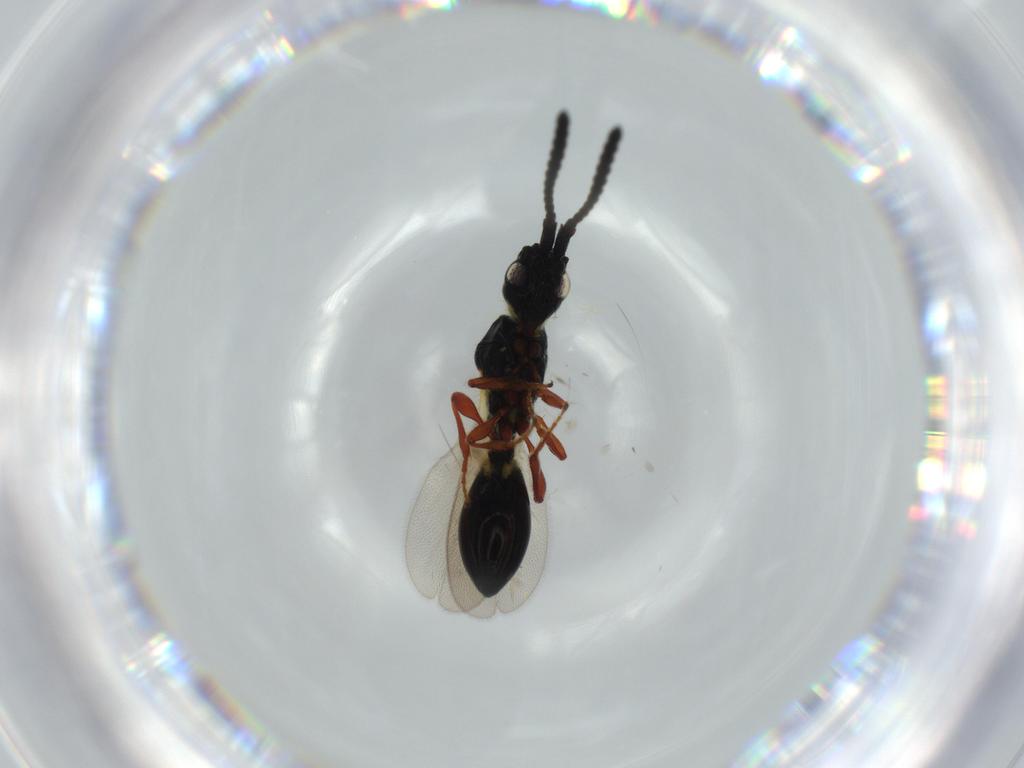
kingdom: Animalia
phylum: Arthropoda
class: Insecta
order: Hymenoptera
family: Diapriidae
